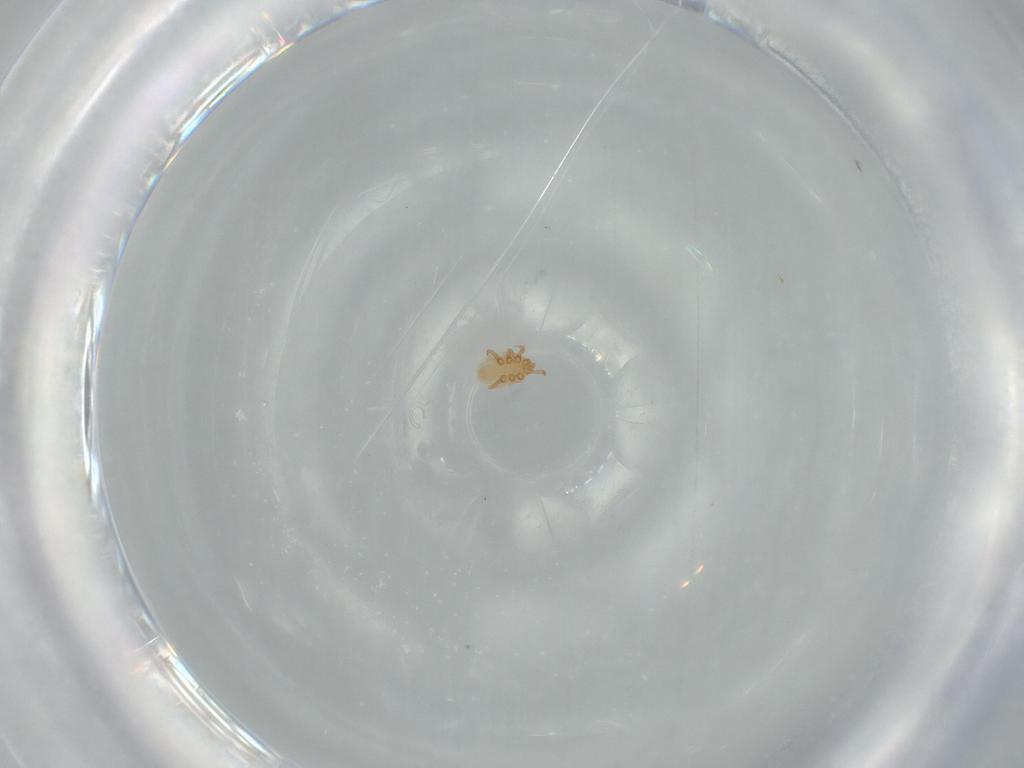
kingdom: Animalia
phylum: Arthropoda
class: Arachnida
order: Mesostigmata
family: Dinychidae
